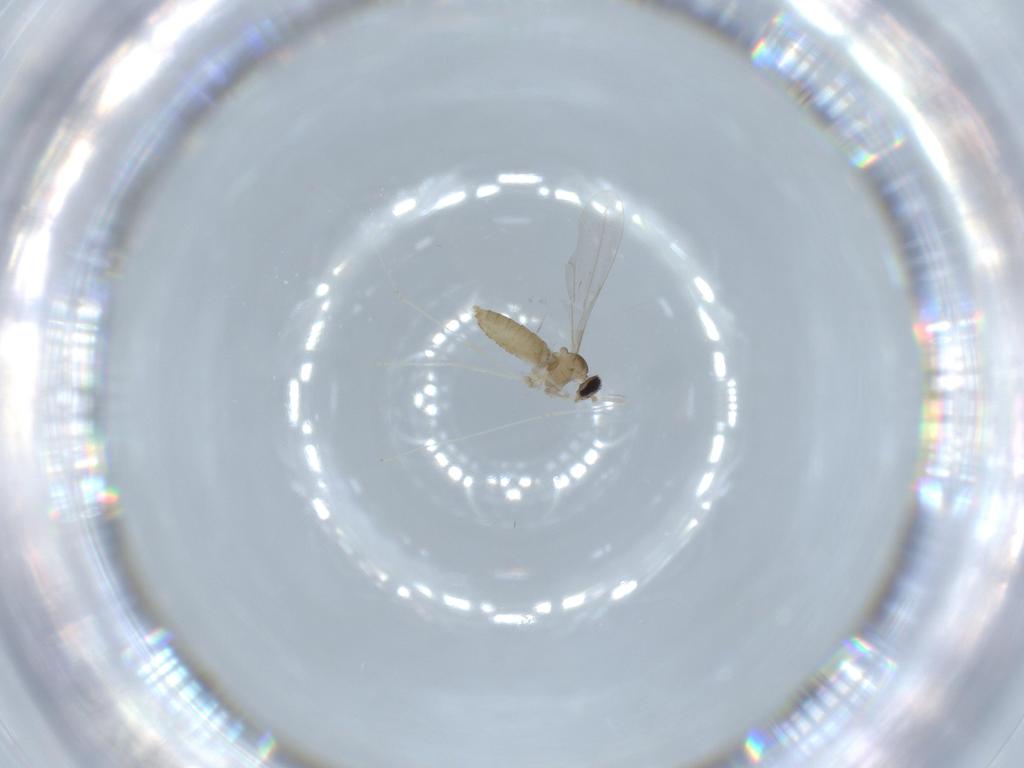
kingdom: Animalia
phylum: Arthropoda
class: Insecta
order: Diptera
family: Cecidomyiidae
